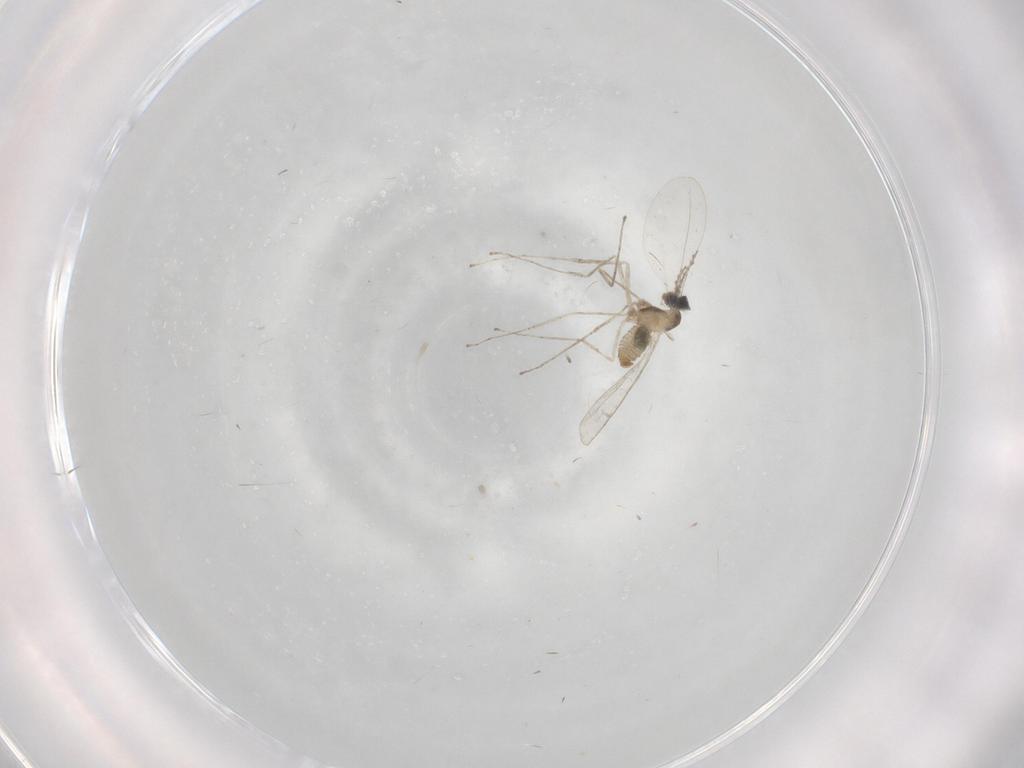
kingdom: Animalia
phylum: Arthropoda
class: Insecta
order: Diptera
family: Cecidomyiidae
